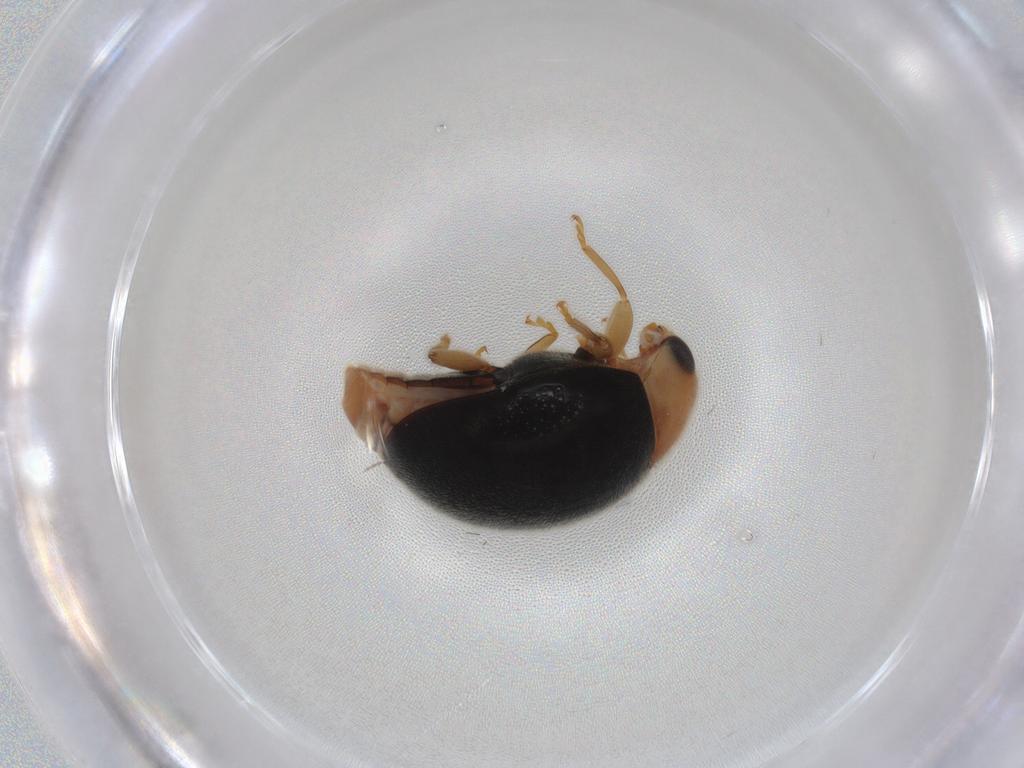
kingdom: Animalia
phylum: Arthropoda
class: Insecta
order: Coleoptera
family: Coccinellidae
